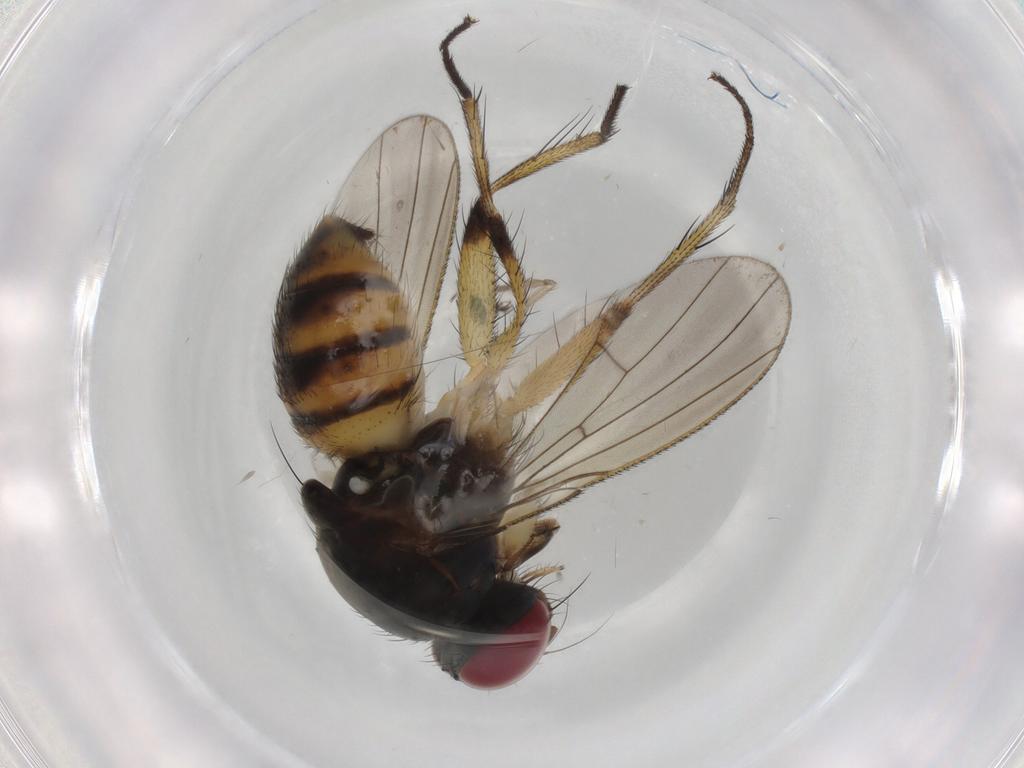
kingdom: Animalia
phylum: Arthropoda
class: Insecta
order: Diptera
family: Muscidae
